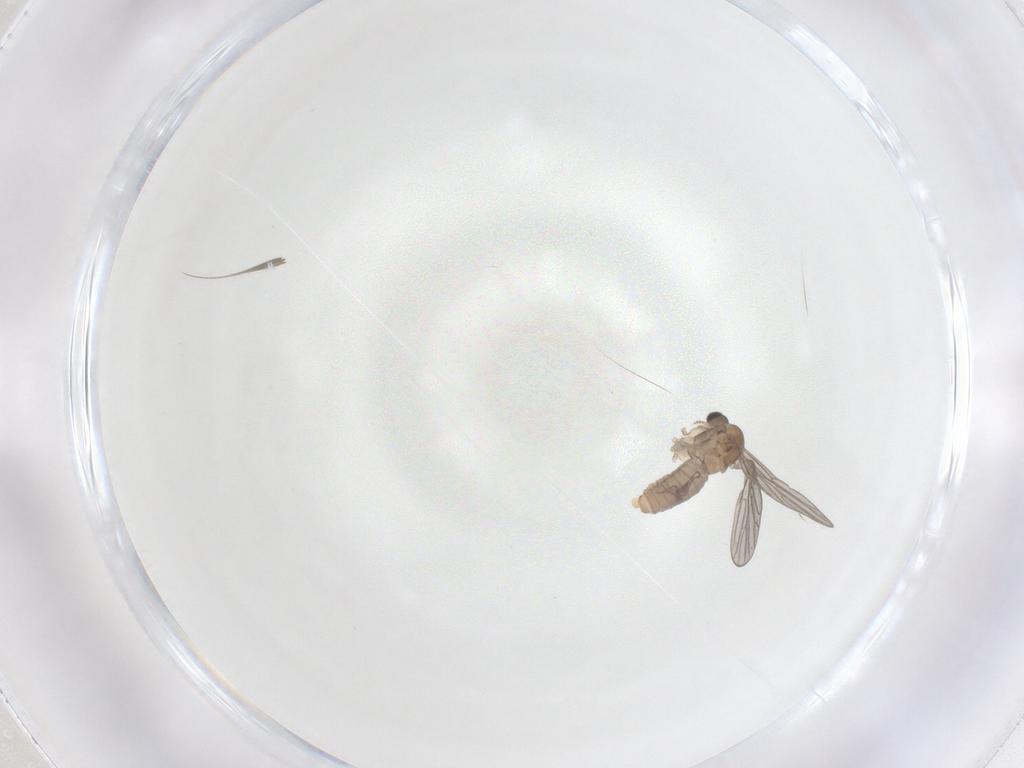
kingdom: Animalia
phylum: Arthropoda
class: Insecta
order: Diptera
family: Psychodidae
